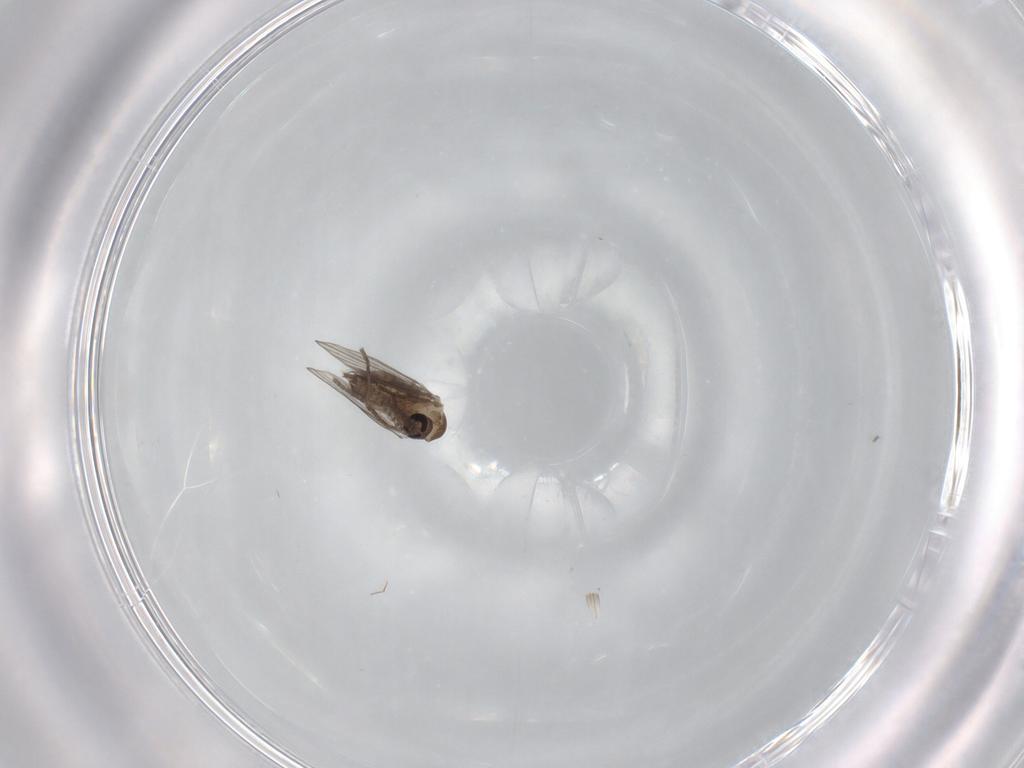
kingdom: Animalia
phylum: Arthropoda
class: Insecta
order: Diptera
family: Psychodidae
